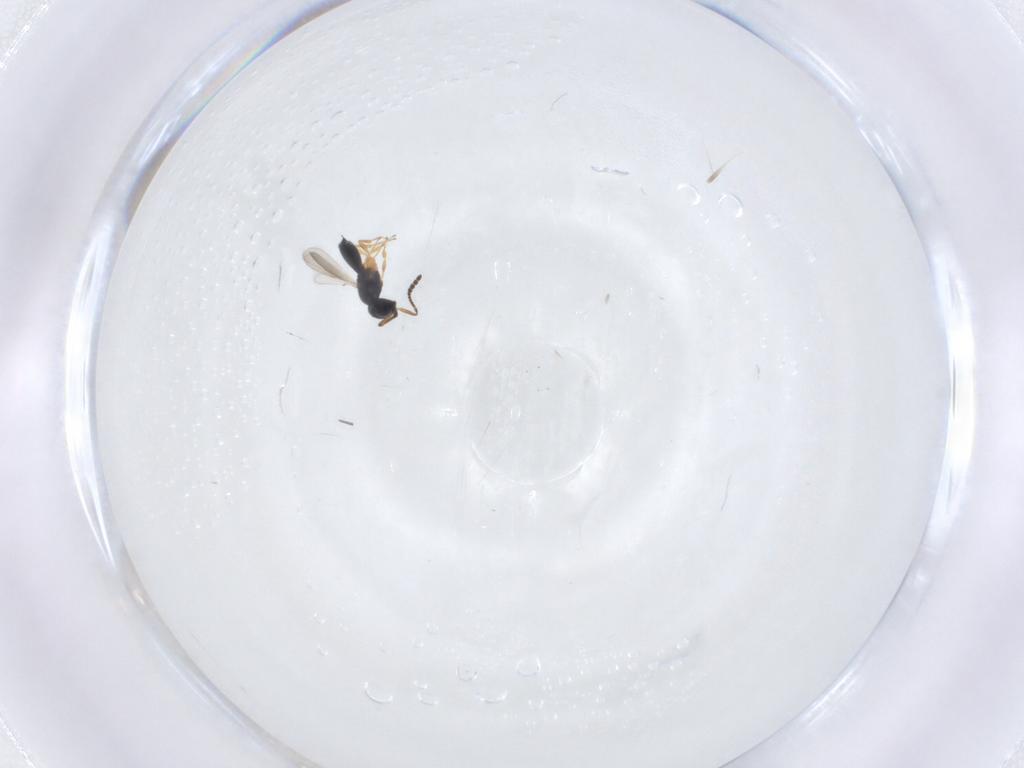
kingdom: Animalia
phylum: Arthropoda
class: Insecta
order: Hymenoptera
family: Scelionidae
